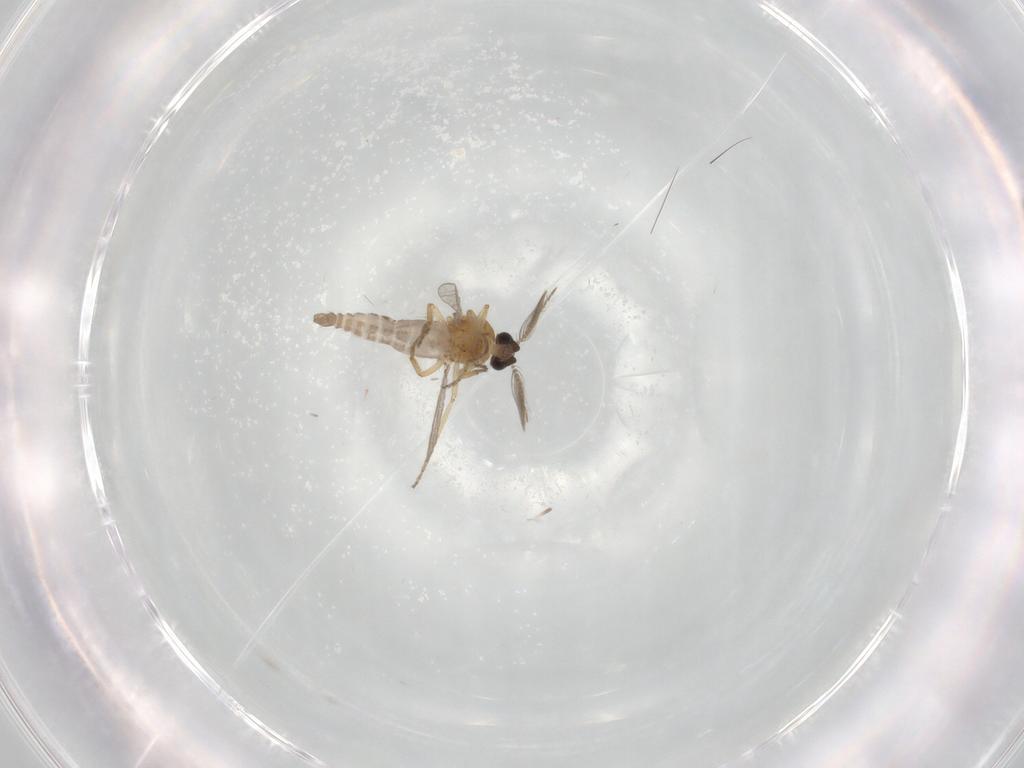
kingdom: Animalia
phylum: Arthropoda
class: Insecta
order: Diptera
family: Ceratopogonidae
